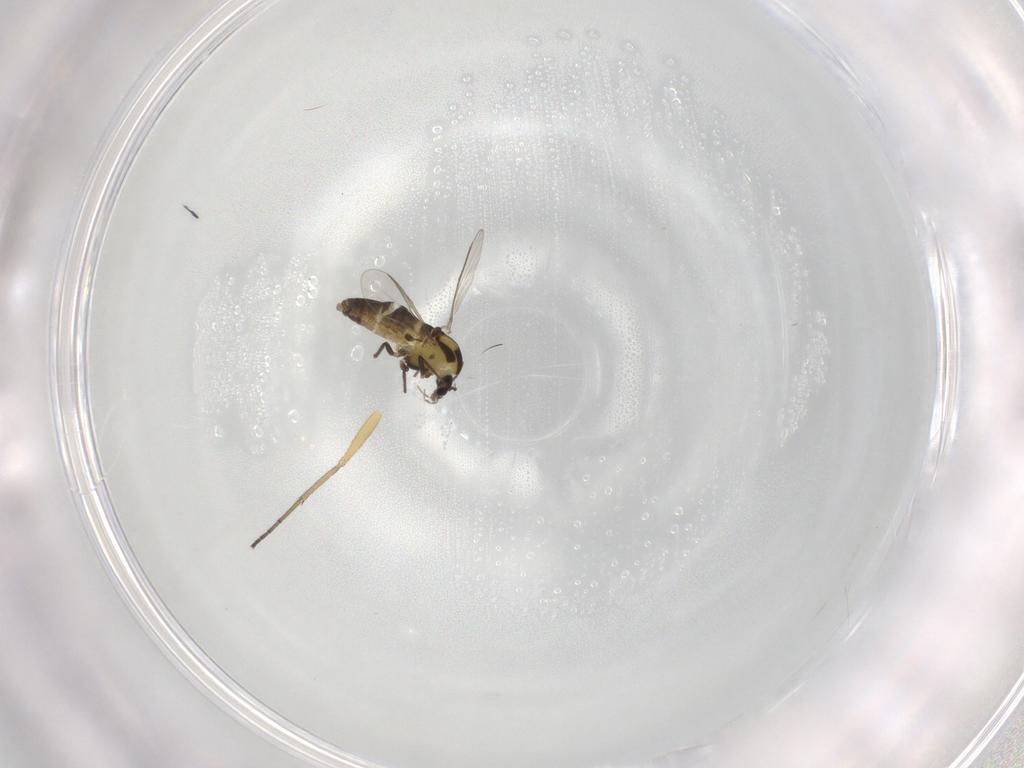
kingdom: Animalia
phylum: Arthropoda
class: Insecta
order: Diptera
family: Chironomidae
